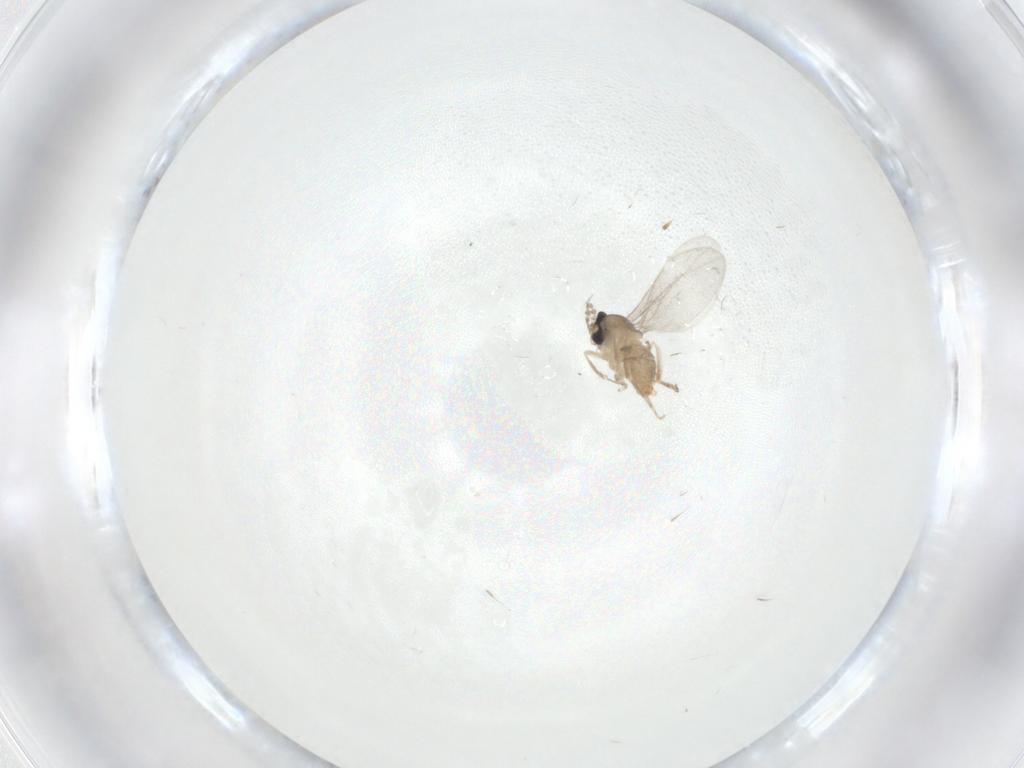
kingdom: Animalia
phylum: Arthropoda
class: Insecta
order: Diptera
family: Cecidomyiidae
